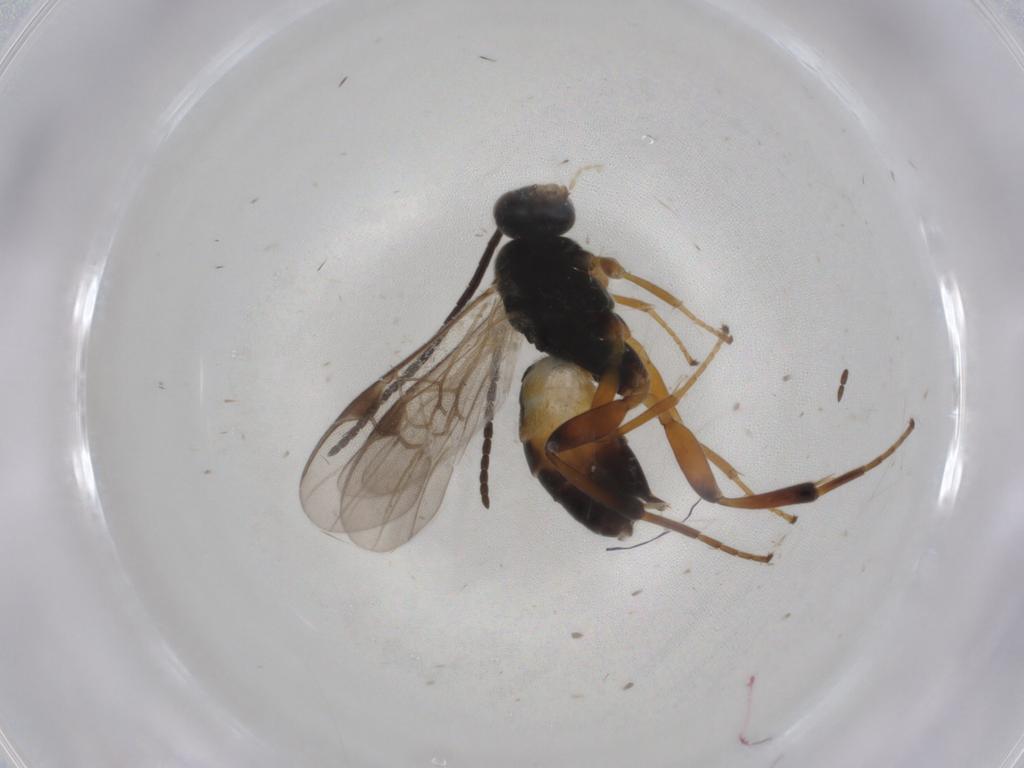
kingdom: Animalia
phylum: Arthropoda
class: Insecta
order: Hymenoptera
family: Braconidae
